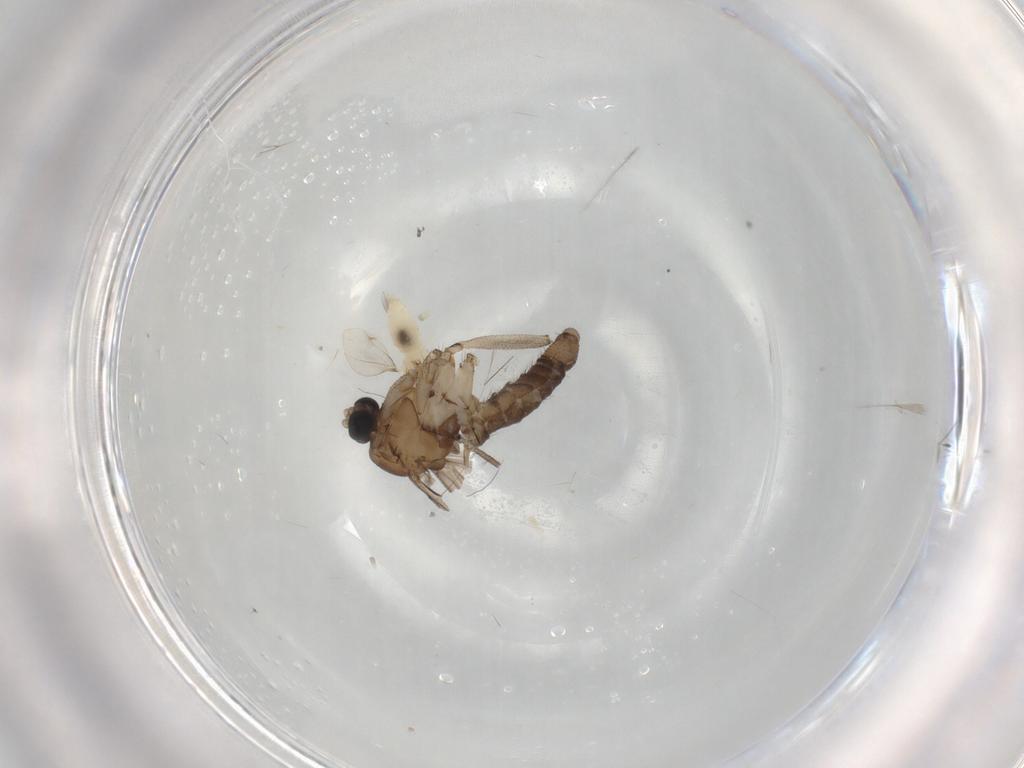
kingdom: Animalia
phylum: Arthropoda
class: Insecta
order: Diptera
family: Sciaridae
